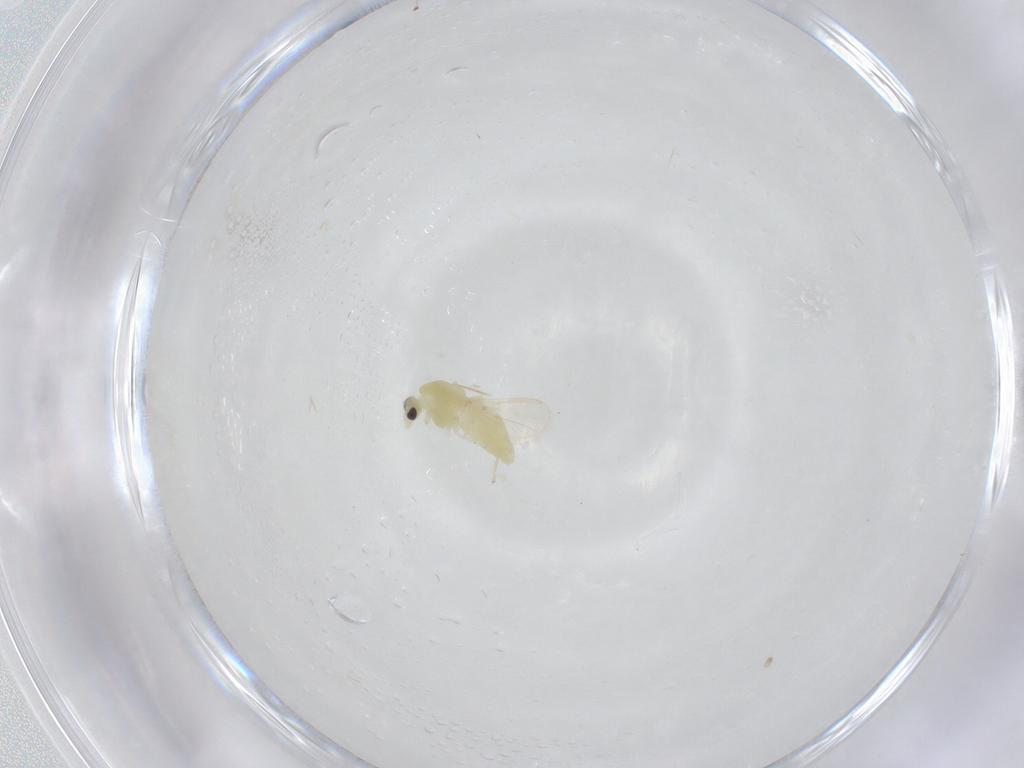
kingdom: Animalia
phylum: Arthropoda
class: Insecta
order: Diptera
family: Chironomidae
